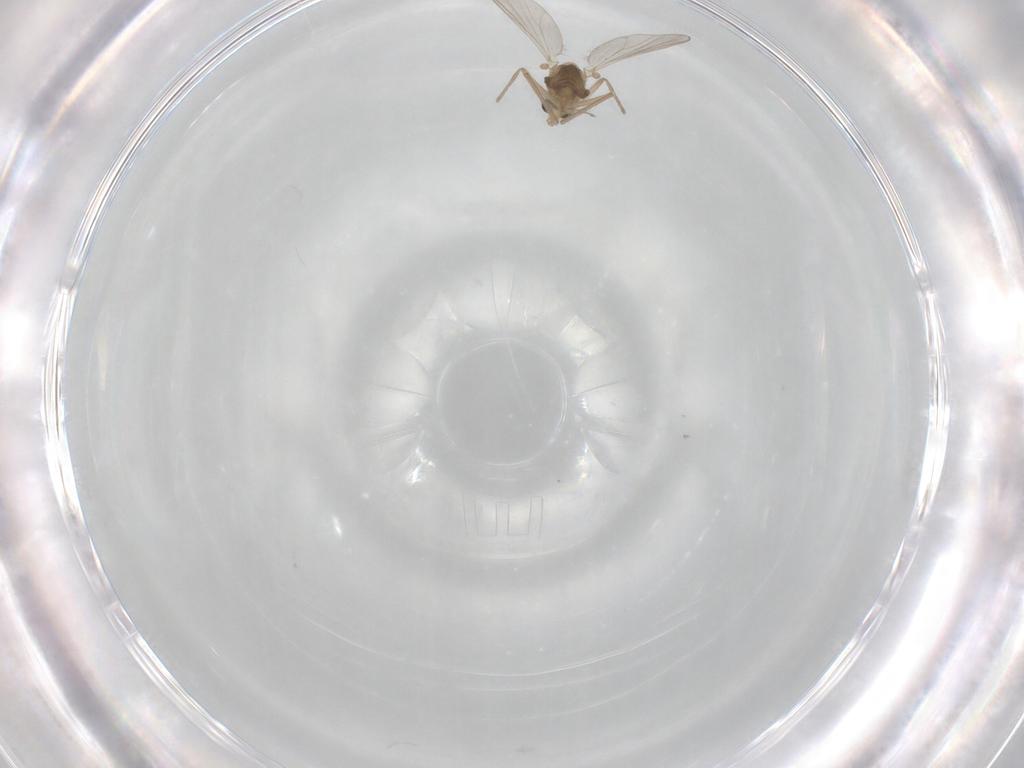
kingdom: Animalia
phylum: Arthropoda
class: Insecta
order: Diptera
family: Chironomidae
